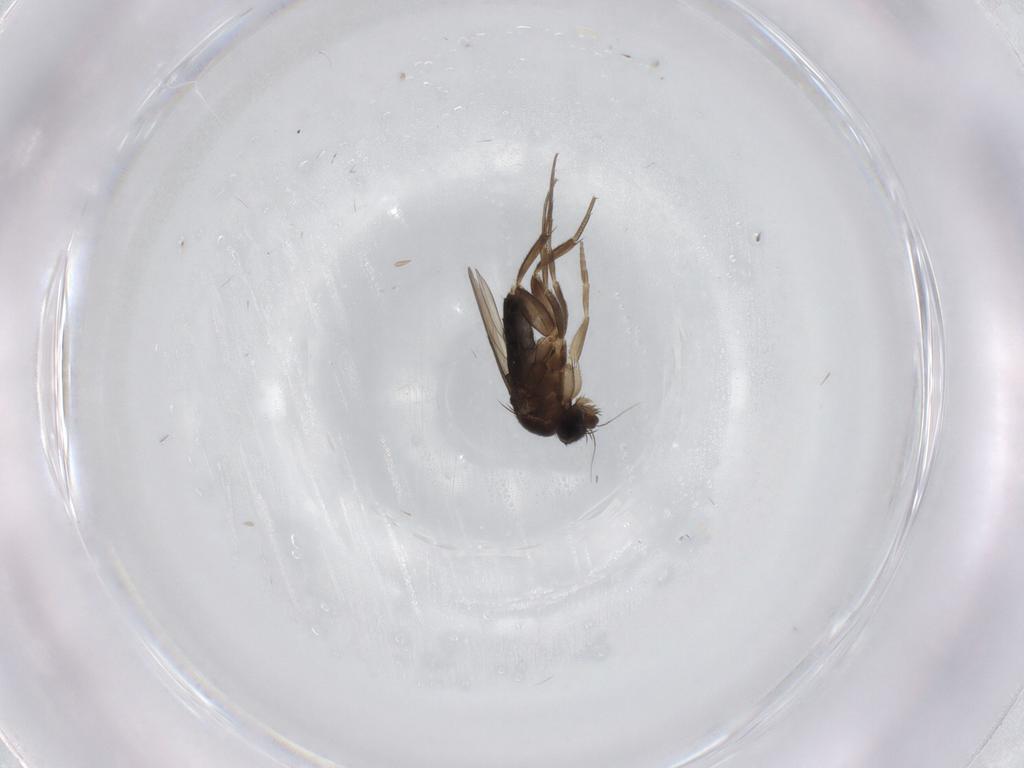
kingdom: Animalia
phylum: Arthropoda
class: Insecta
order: Diptera
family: Phoridae
